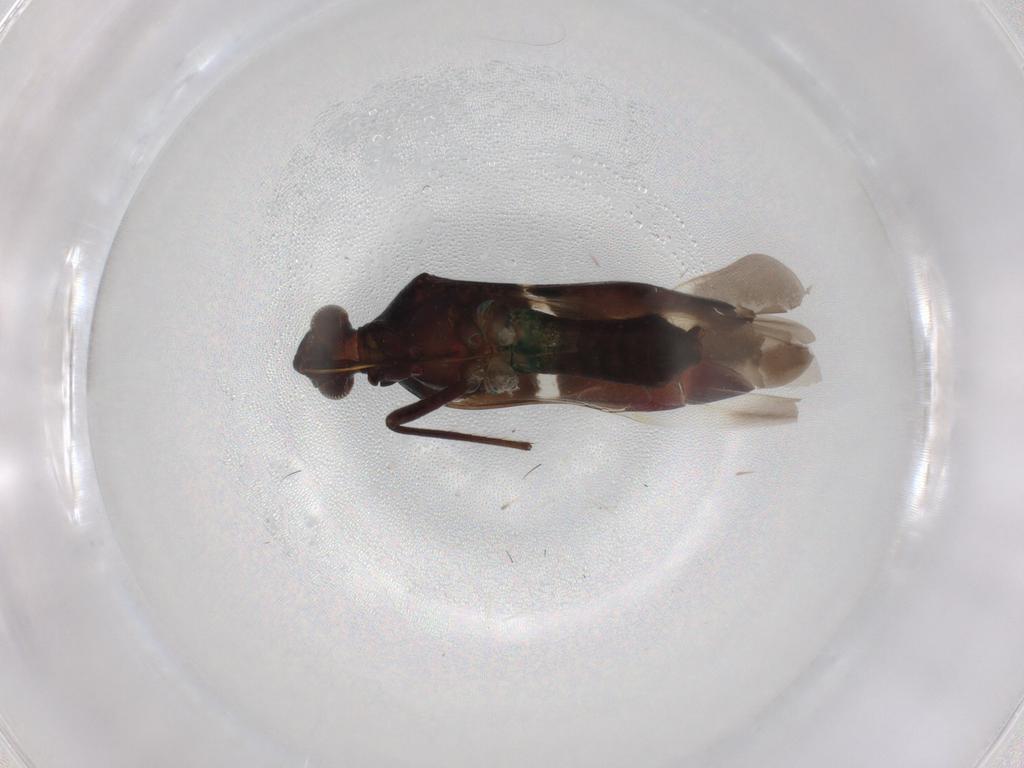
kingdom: Animalia
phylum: Arthropoda
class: Insecta
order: Hemiptera
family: Miridae
